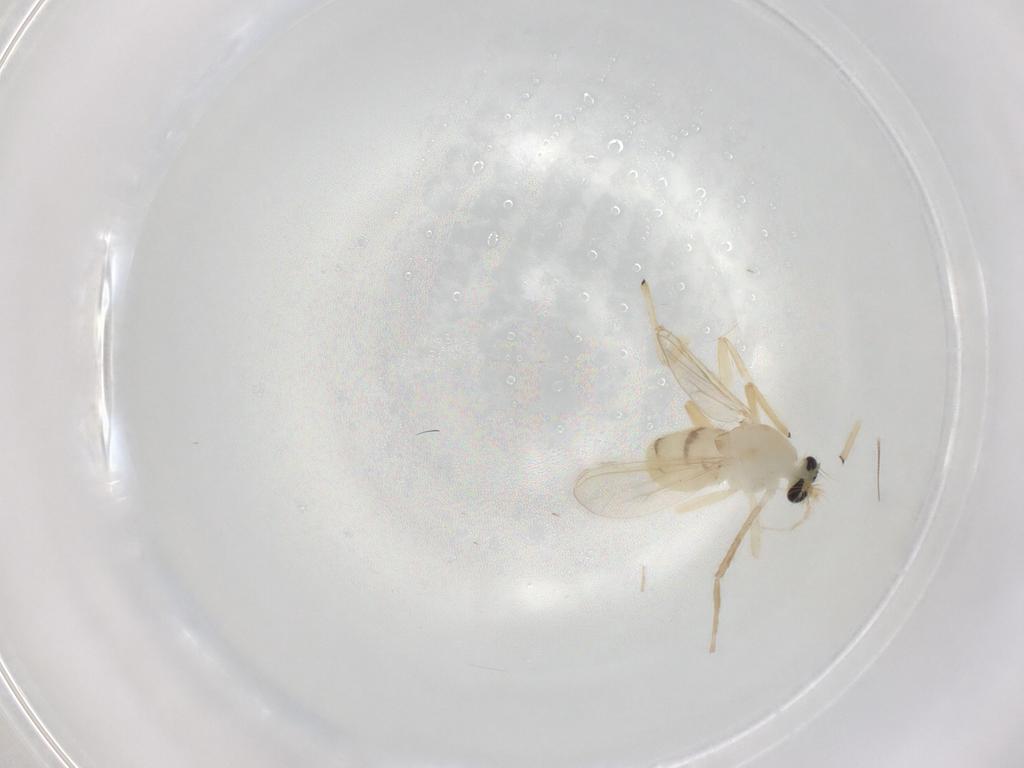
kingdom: Animalia
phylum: Arthropoda
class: Insecta
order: Diptera
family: Chironomidae
